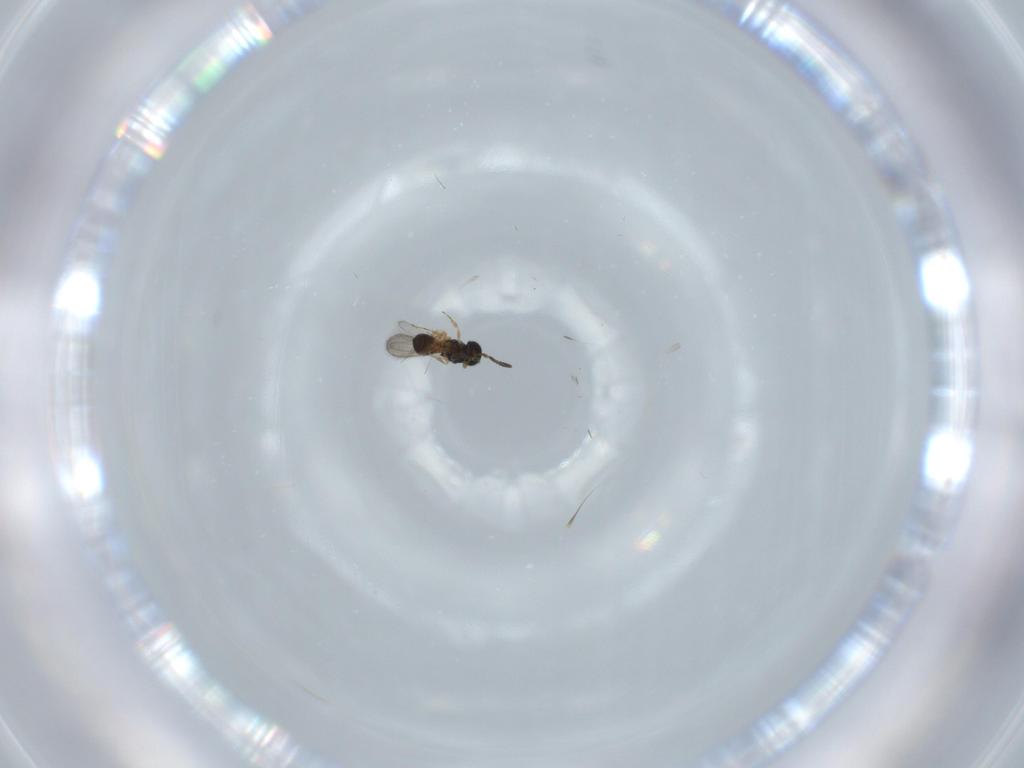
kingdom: Animalia
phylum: Arthropoda
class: Insecta
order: Hymenoptera
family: Scelionidae
